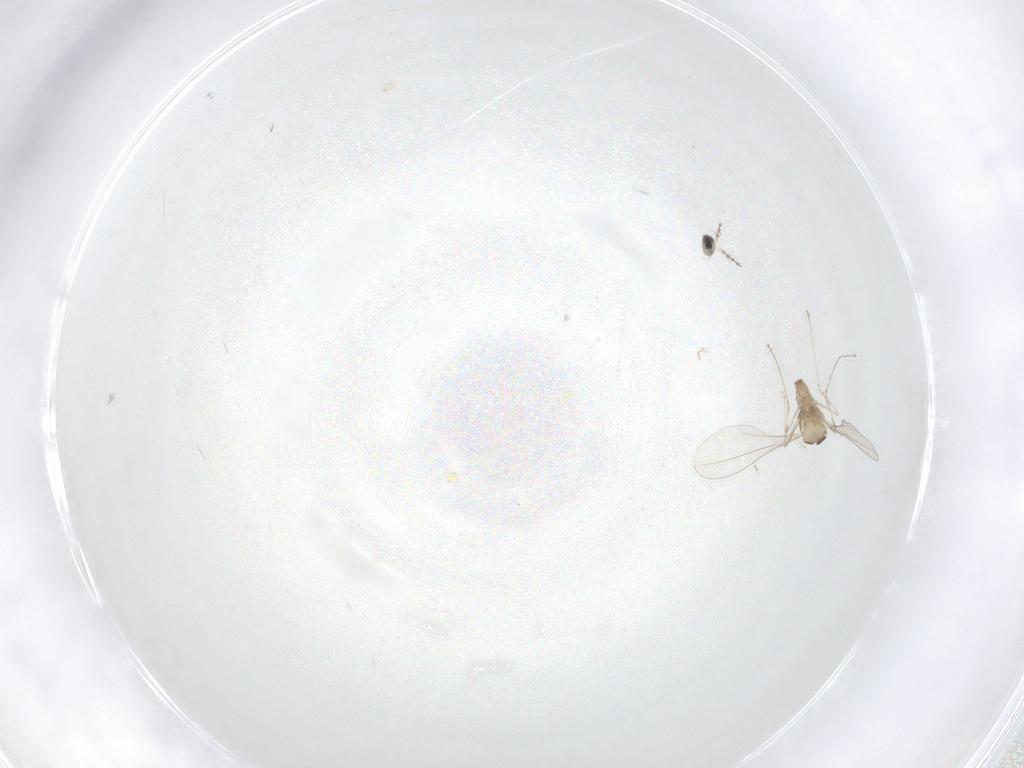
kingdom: Animalia
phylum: Arthropoda
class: Insecta
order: Diptera
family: Cecidomyiidae
